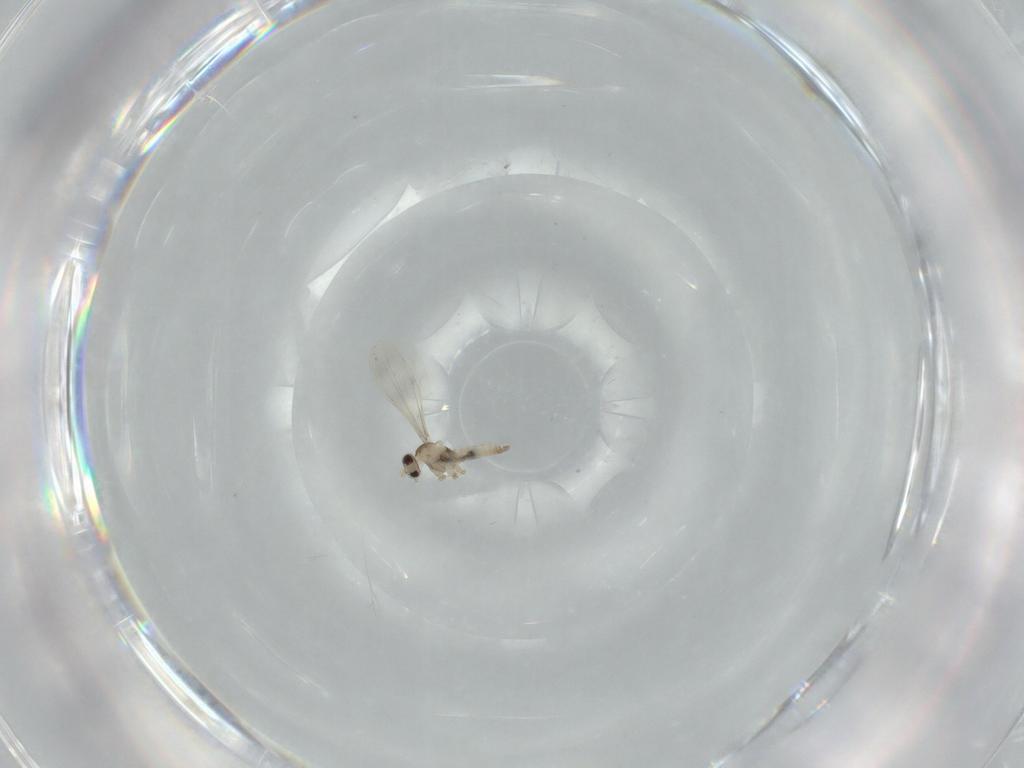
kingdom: Animalia
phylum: Arthropoda
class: Insecta
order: Diptera
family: Cecidomyiidae
